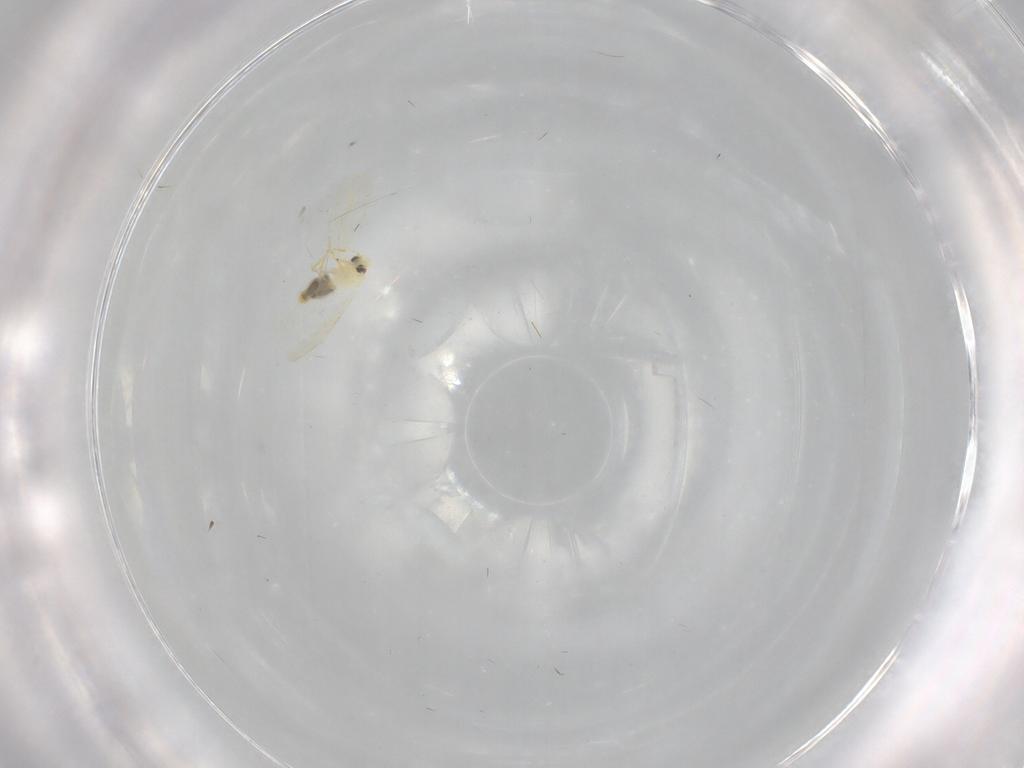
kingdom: Animalia
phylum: Arthropoda
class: Insecta
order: Hemiptera
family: Aleyrodidae
